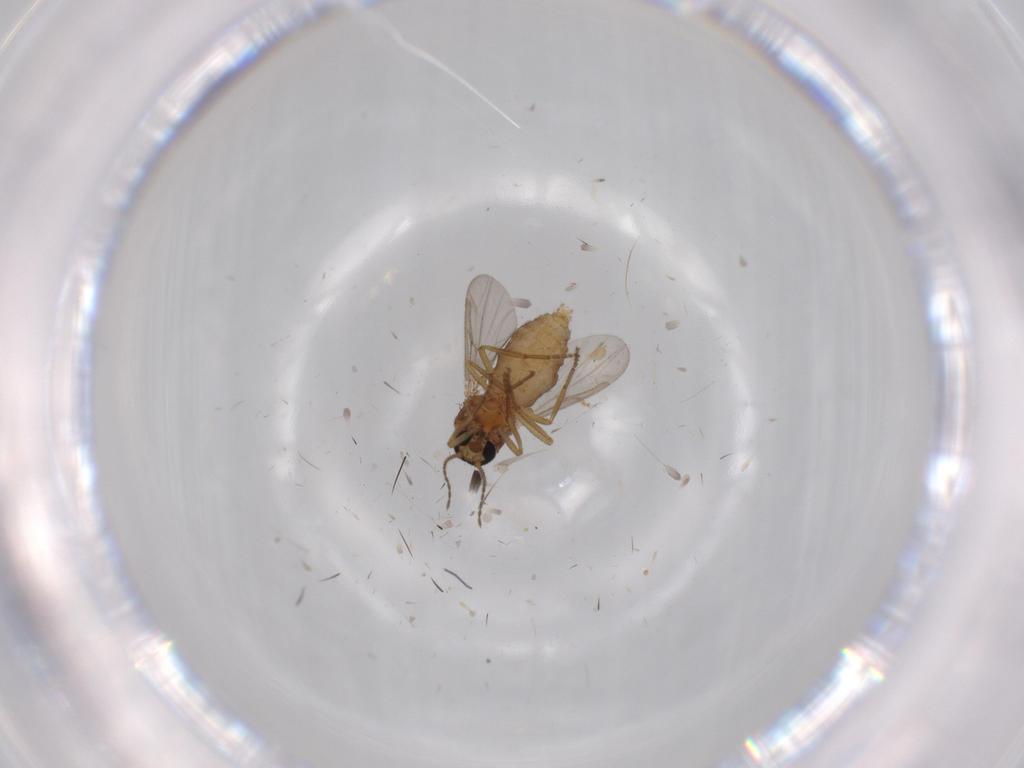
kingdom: Animalia
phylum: Arthropoda
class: Insecta
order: Diptera
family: Ceratopogonidae
